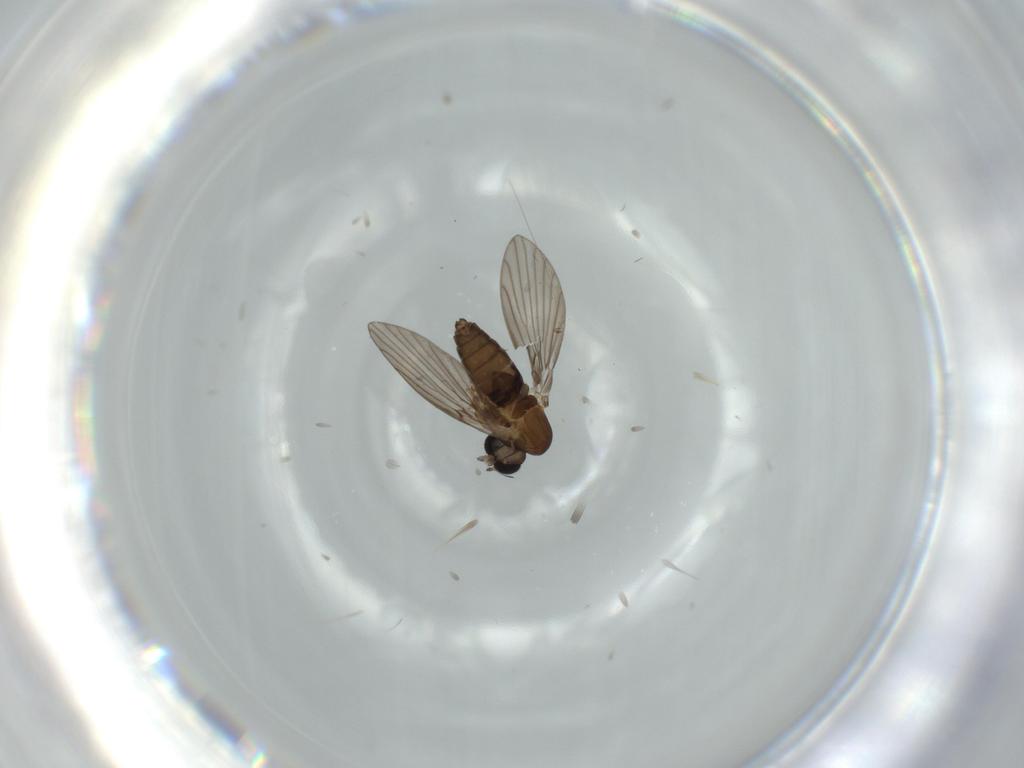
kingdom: Animalia
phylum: Arthropoda
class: Insecta
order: Diptera
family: Psychodidae
